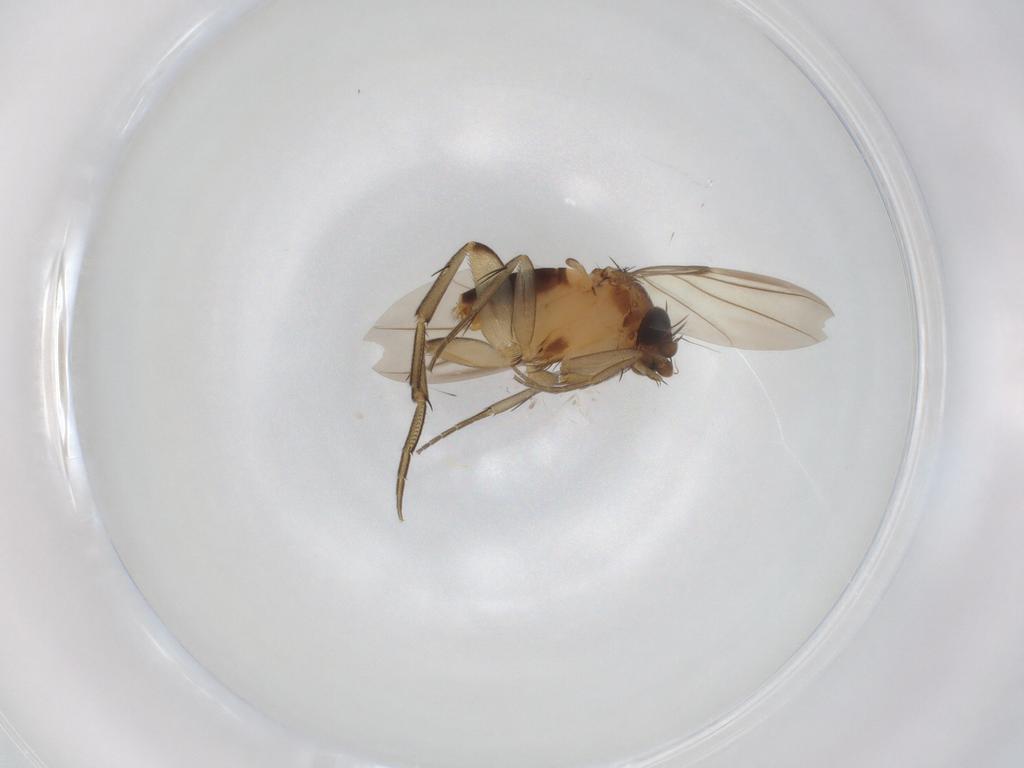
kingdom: Animalia
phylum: Arthropoda
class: Insecta
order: Diptera
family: Phoridae
